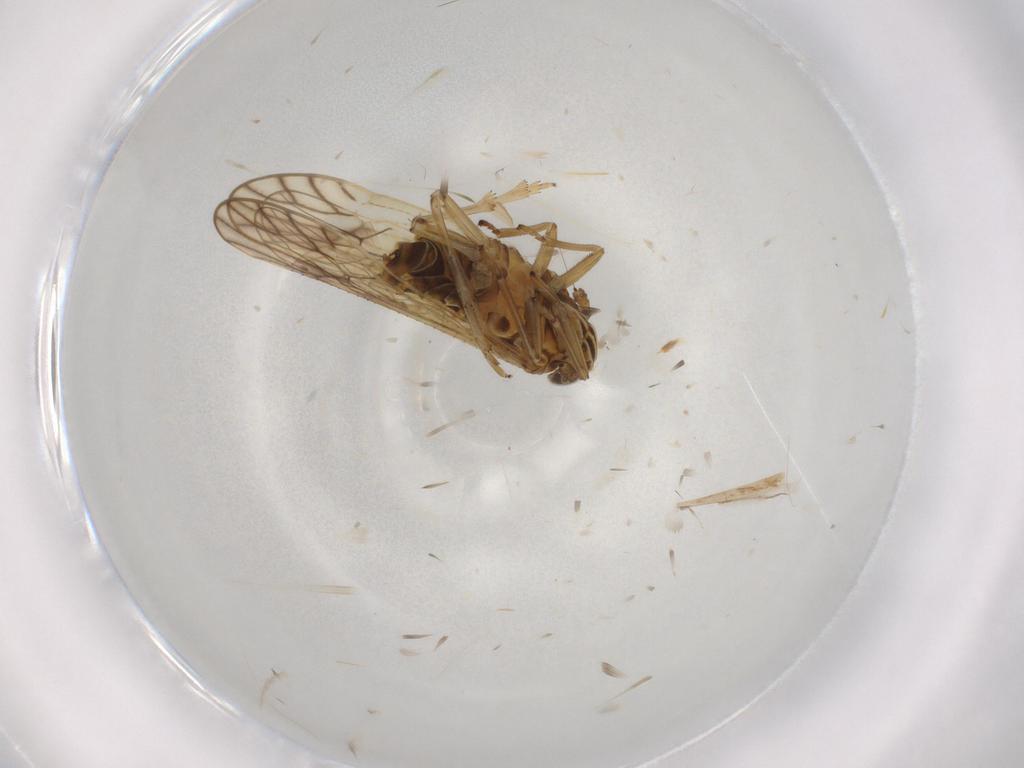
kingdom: Animalia
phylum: Arthropoda
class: Insecta
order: Hemiptera
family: Delphacidae
